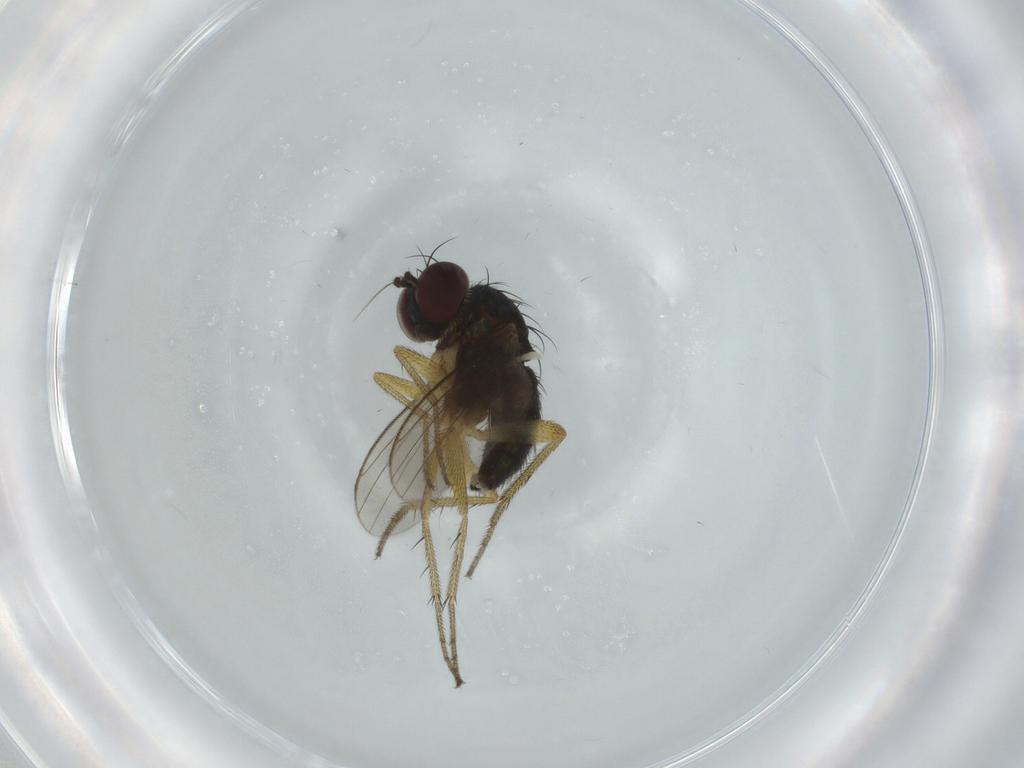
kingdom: Animalia
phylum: Arthropoda
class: Insecta
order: Diptera
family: Dolichopodidae
